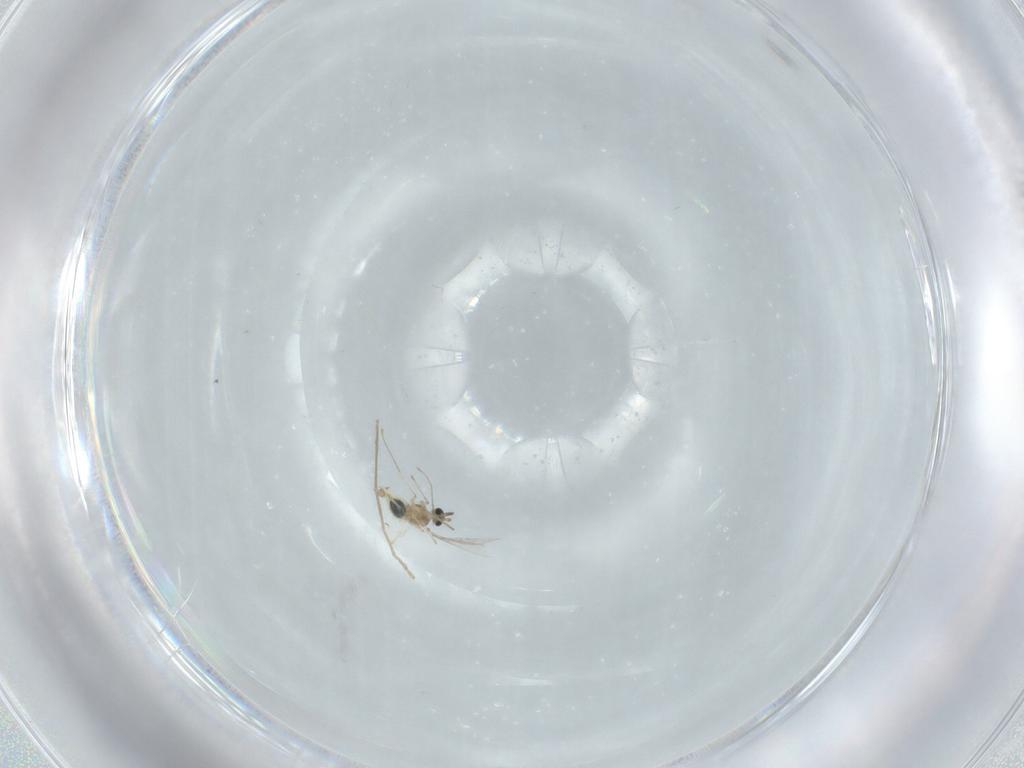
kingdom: Animalia
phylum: Arthropoda
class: Insecta
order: Diptera
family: Cecidomyiidae
